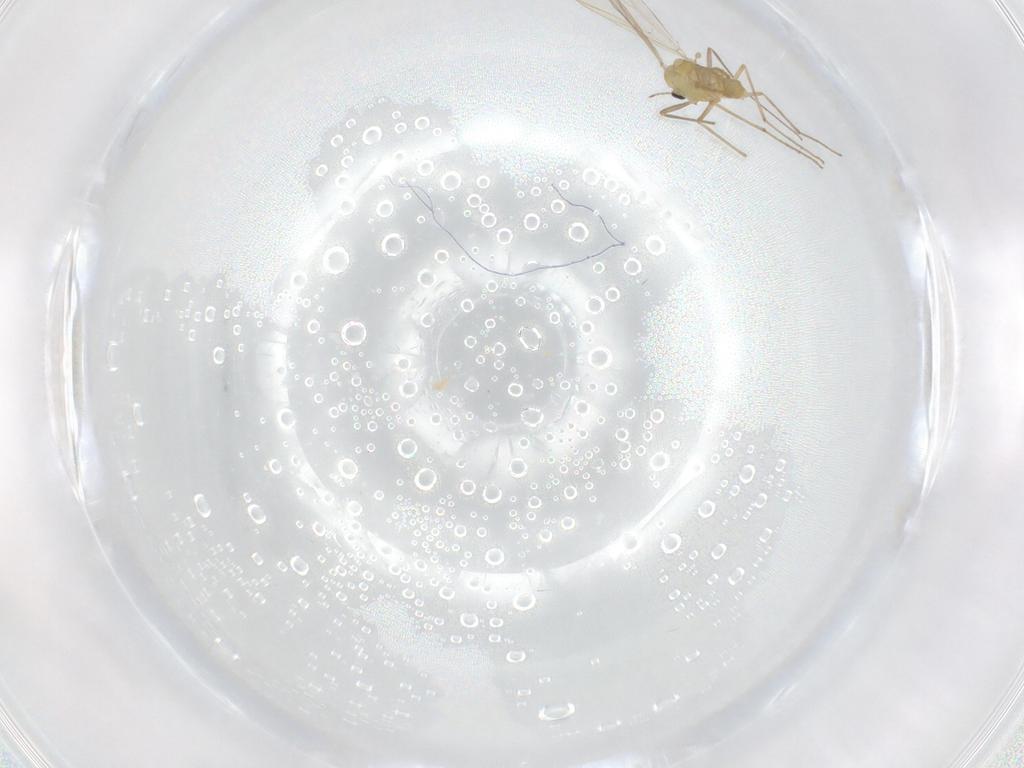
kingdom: Animalia
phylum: Arthropoda
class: Insecta
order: Diptera
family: Chironomidae
